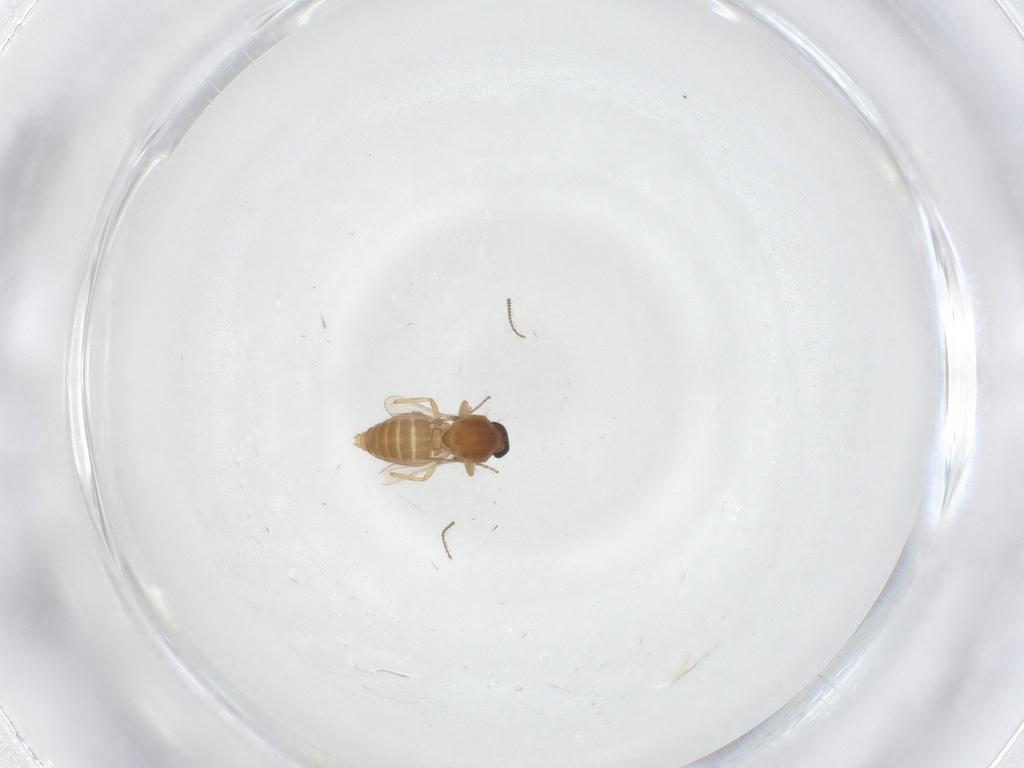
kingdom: Animalia
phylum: Arthropoda
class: Insecta
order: Diptera
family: Ceratopogonidae
